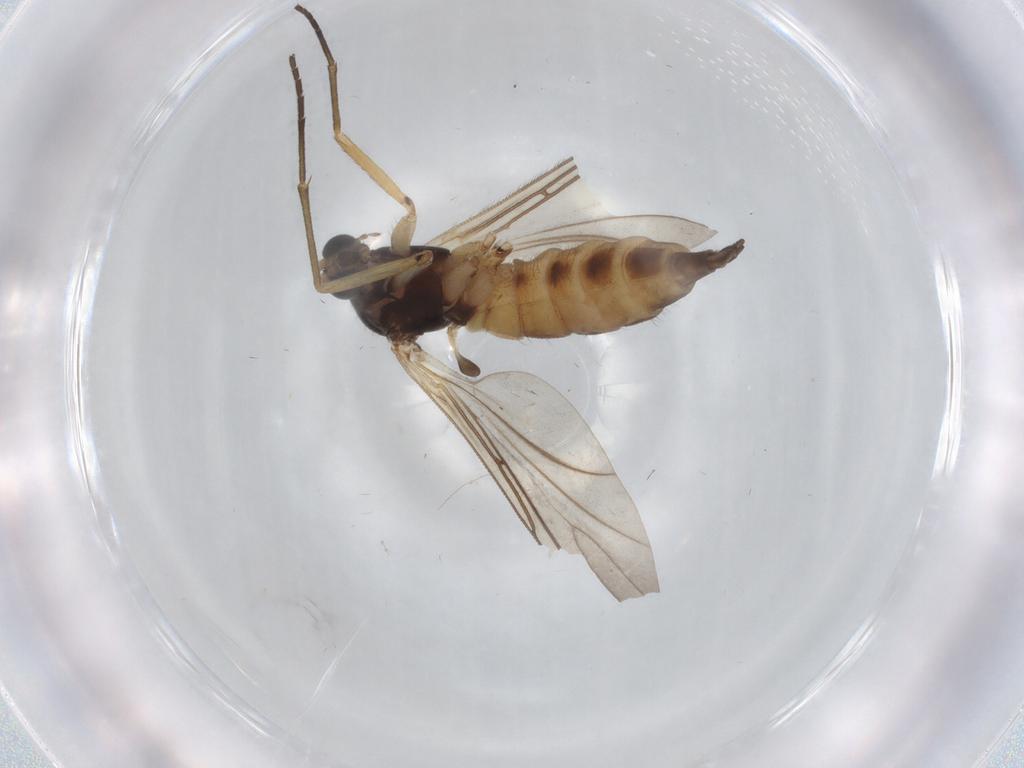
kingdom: Animalia
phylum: Arthropoda
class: Insecta
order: Diptera
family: Sciaridae
